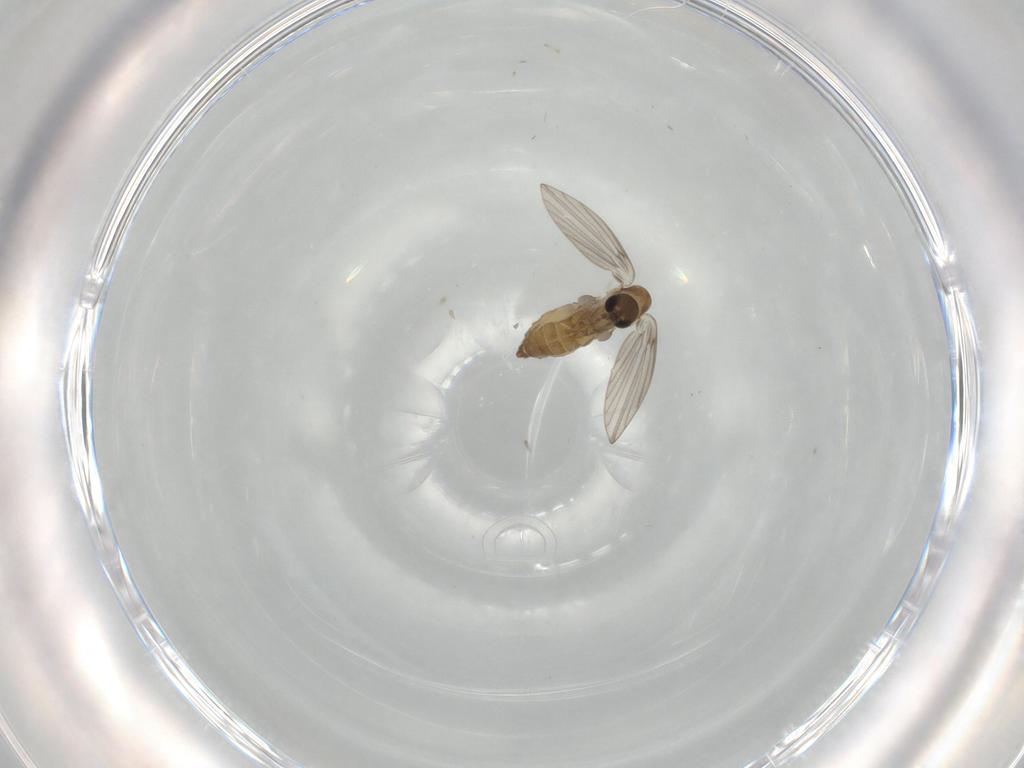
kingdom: Animalia
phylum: Arthropoda
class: Insecta
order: Diptera
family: Psychodidae
